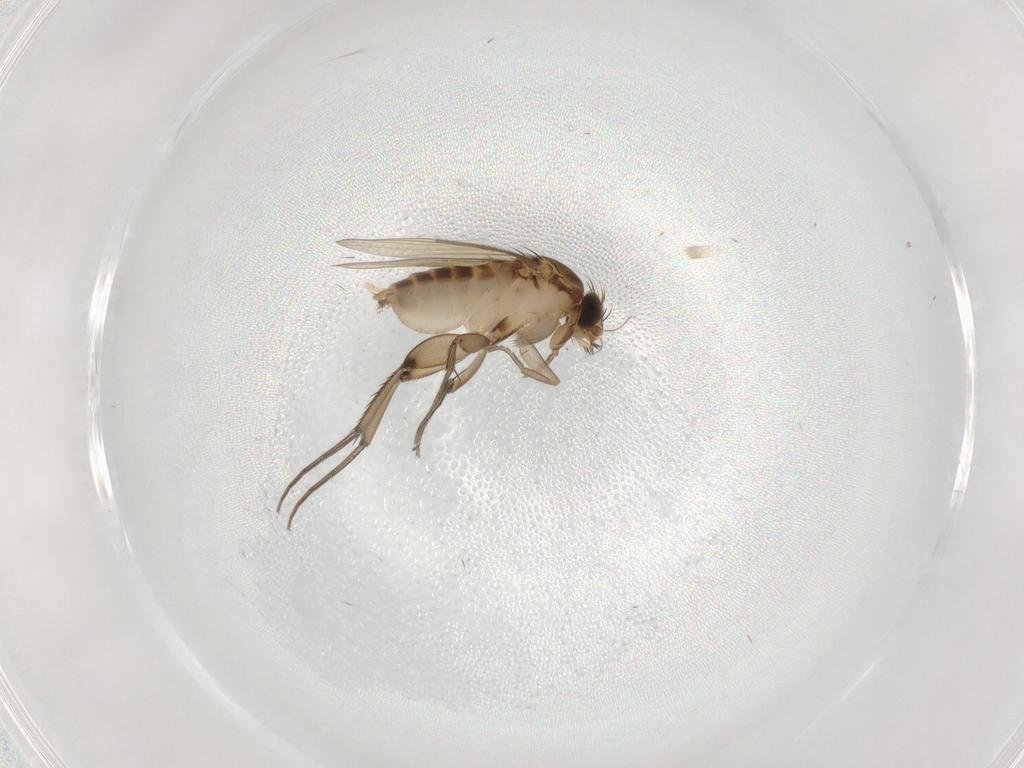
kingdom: Animalia
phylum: Arthropoda
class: Insecta
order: Diptera
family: Phoridae
